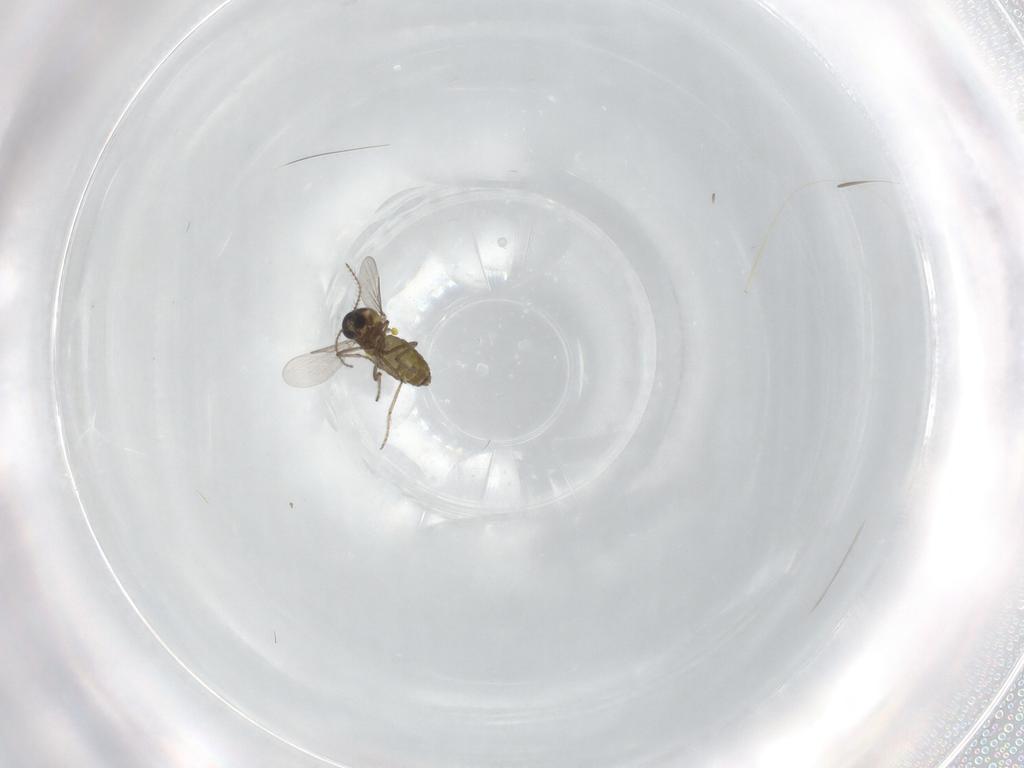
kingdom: Animalia
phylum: Arthropoda
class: Insecta
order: Diptera
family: Ceratopogonidae
